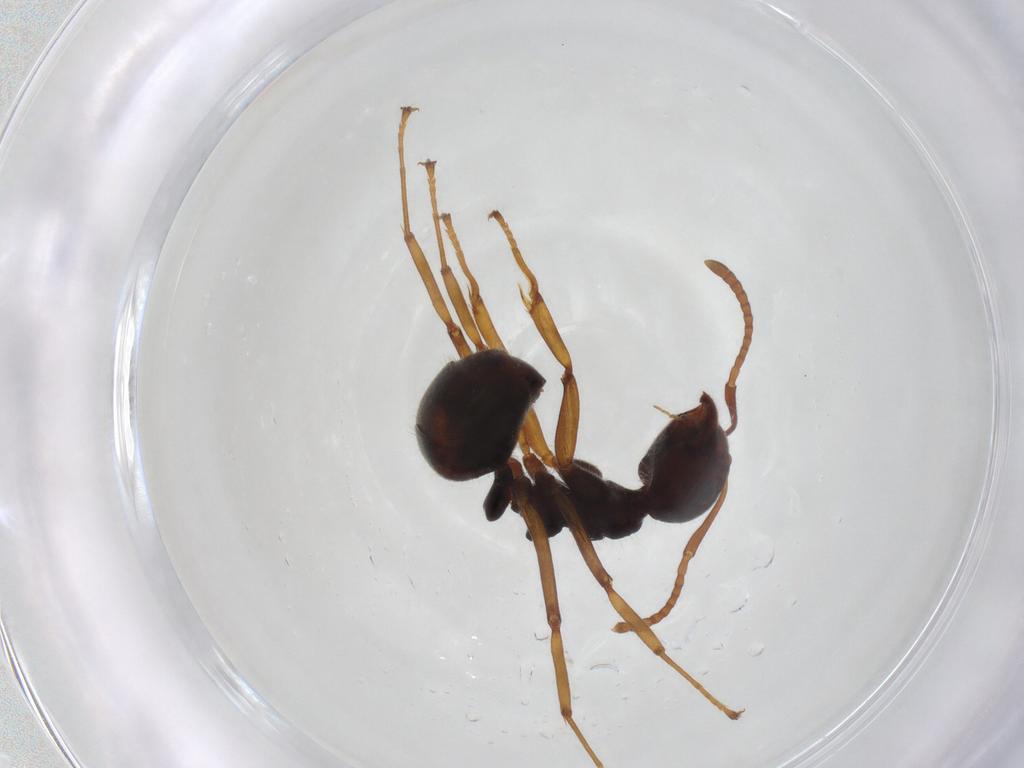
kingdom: Animalia
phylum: Arthropoda
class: Insecta
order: Hymenoptera
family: Formicidae
